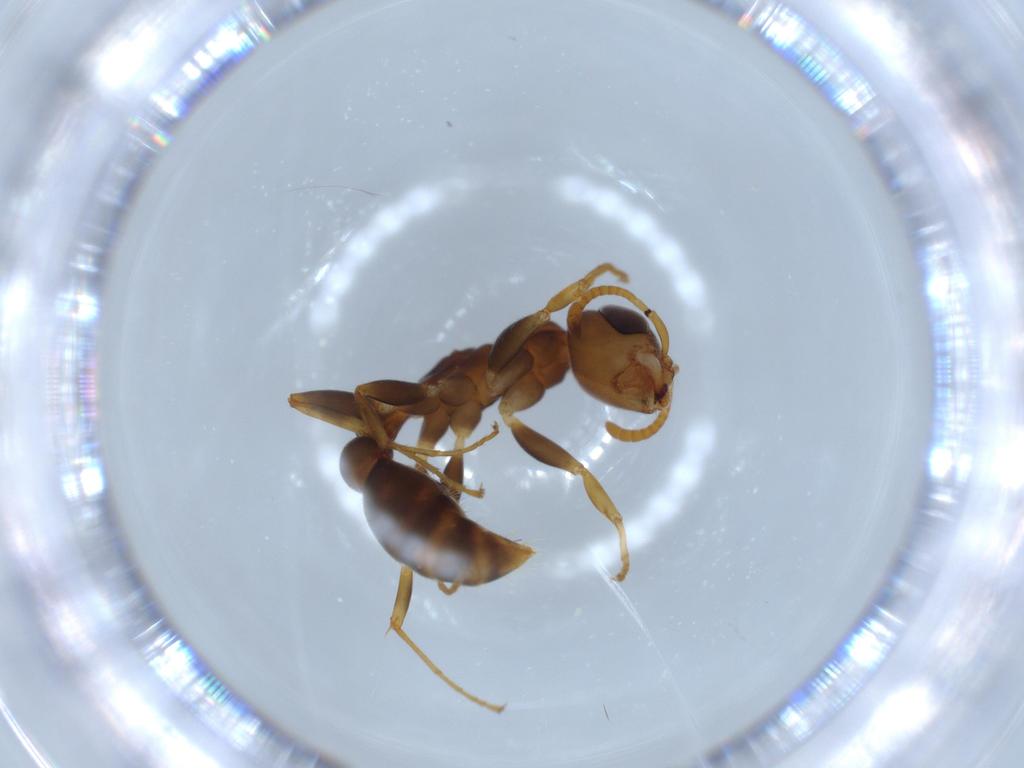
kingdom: Animalia
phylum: Arthropoda
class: Insecta
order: Hymenoptera
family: Formicidae
